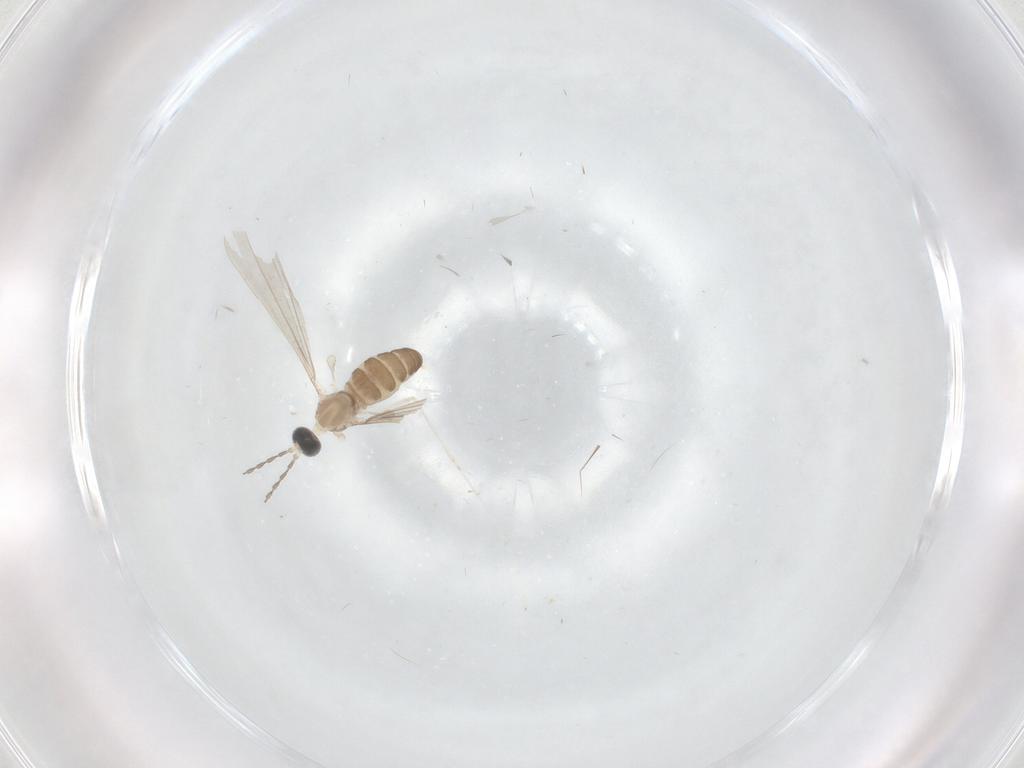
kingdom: Animalia
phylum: Arthropoda
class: Insecta
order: Diptera
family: Cecidomyiidae
